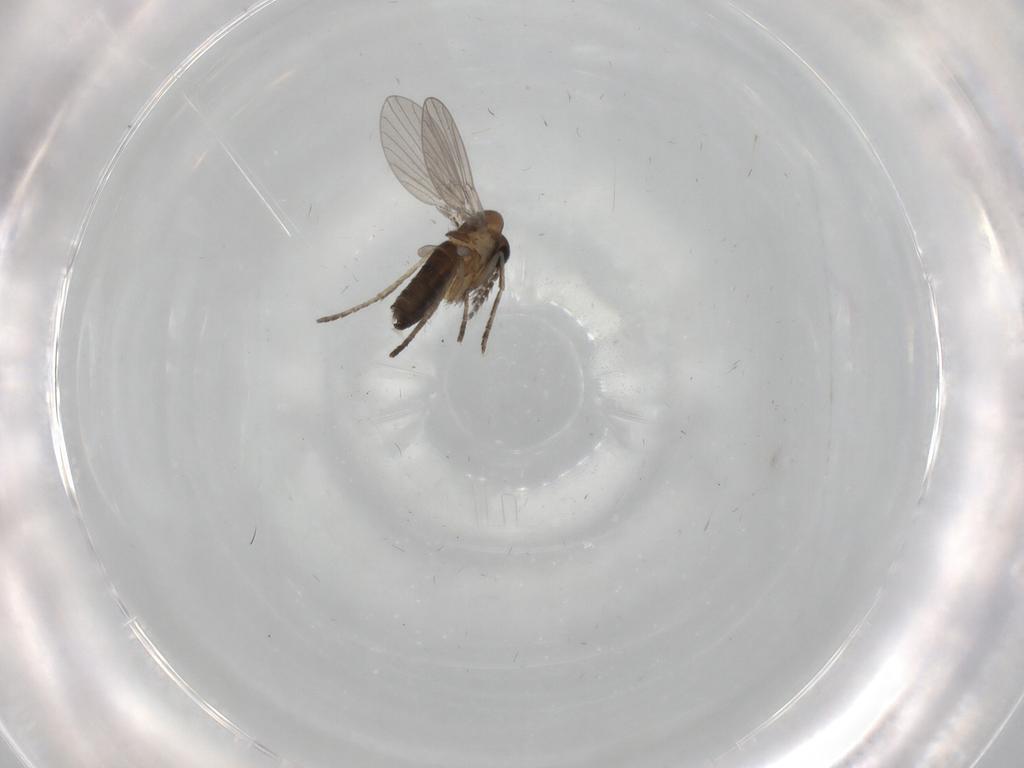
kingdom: Animalia
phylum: Arthropoda
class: Insecta
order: Diptera
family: Psychodidae
